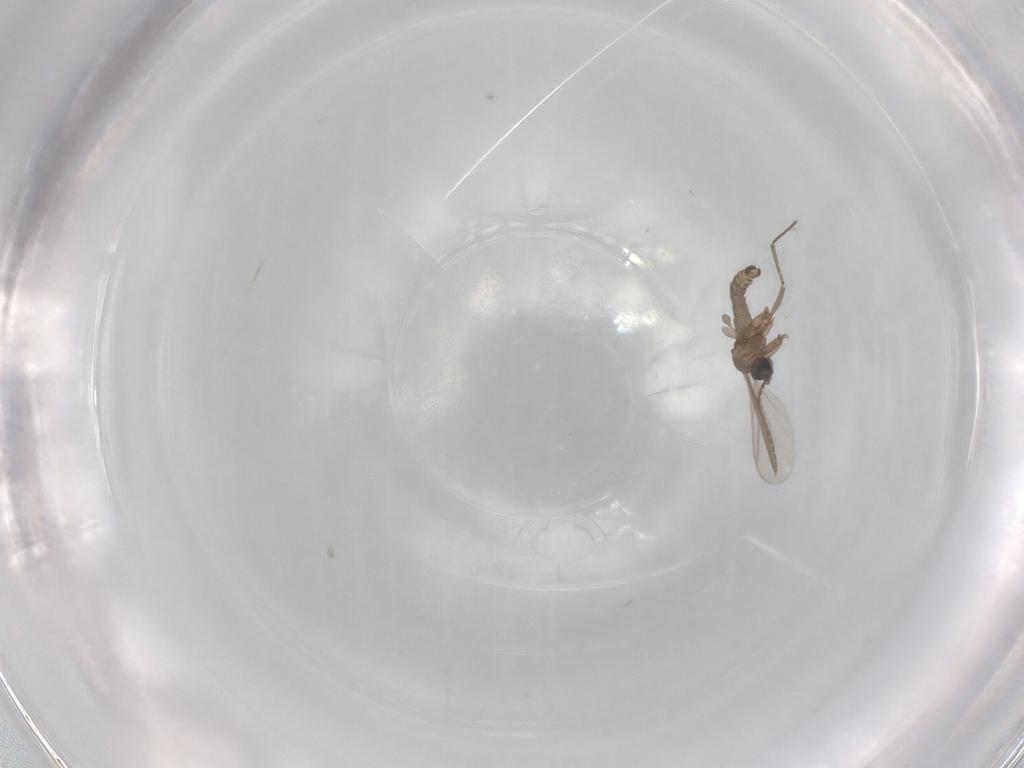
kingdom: Animalia
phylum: Arthropoda
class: Insecta
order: Diptera
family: Sciaridae
